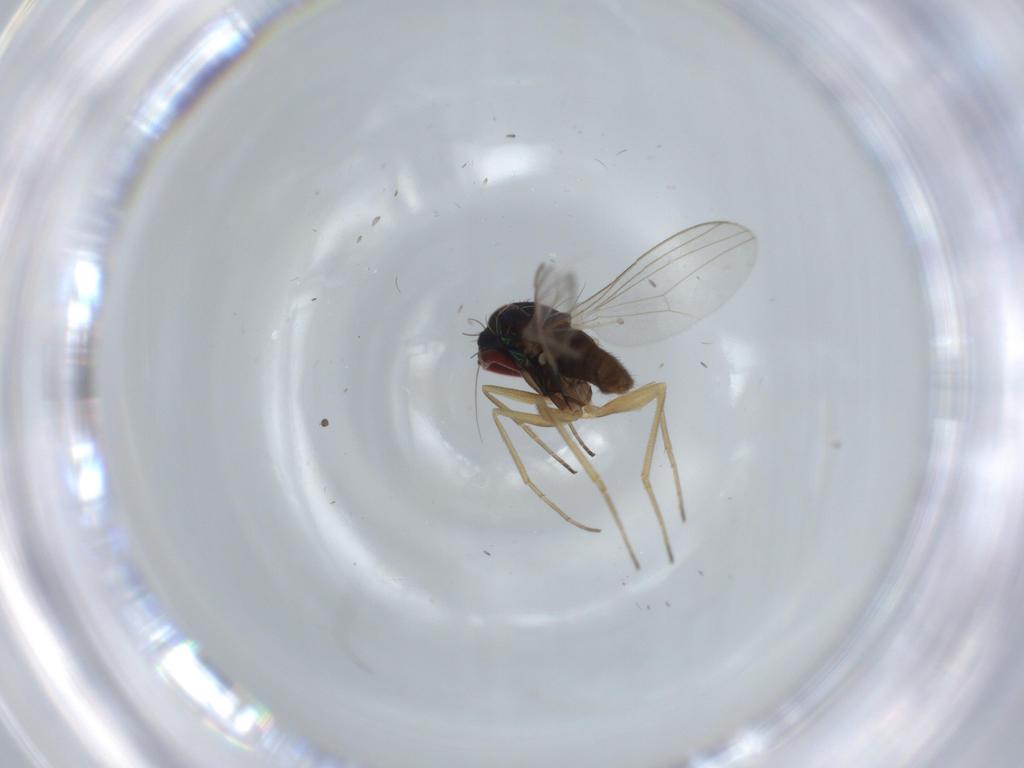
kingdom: Animalia
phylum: Arthropoda
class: Insecta
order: Diptera
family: Cecidomyiidae
